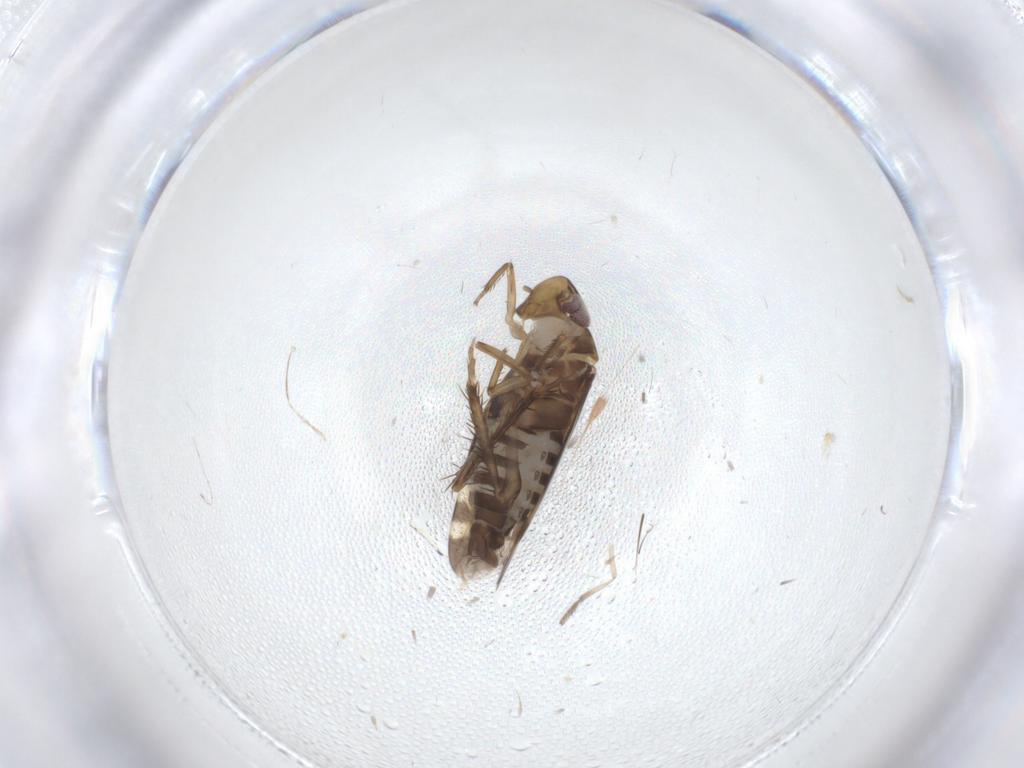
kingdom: Animalia
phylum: Arthropoda
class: Insecta
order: Hemiptera
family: Cicadellidae
